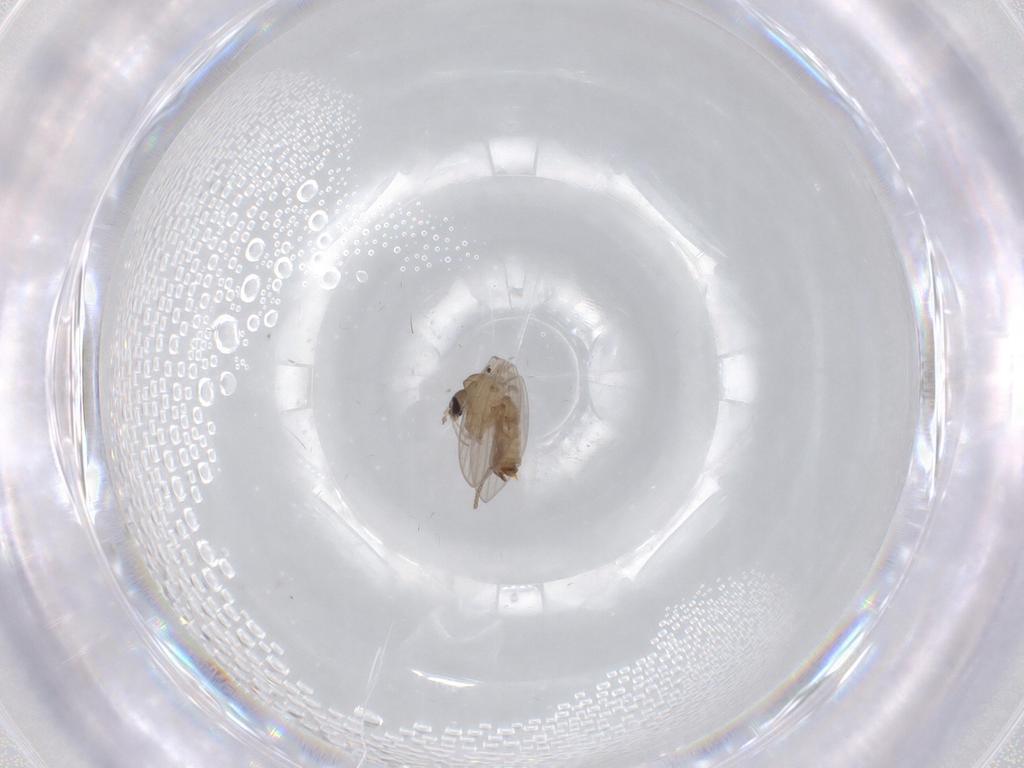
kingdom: Animalia
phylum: Arthropoda
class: Insecta
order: Diptera
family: Psychodidae
